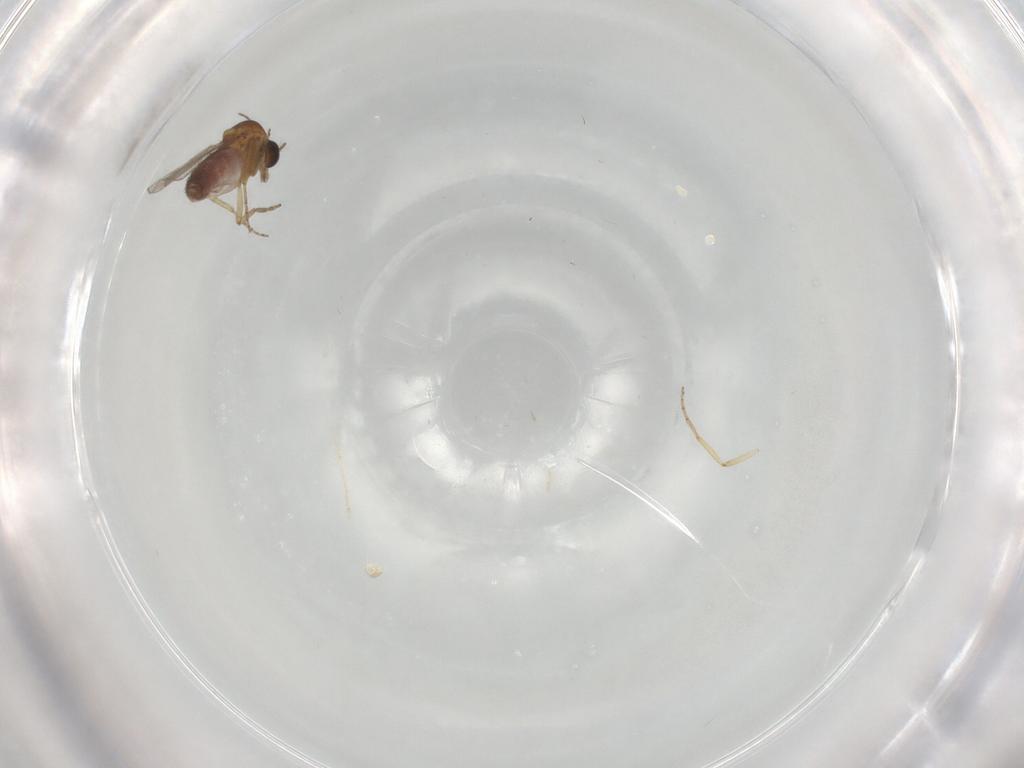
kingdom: Animalia
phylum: Arthropoda
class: Insecta
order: Diptera
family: Ceratopogonidae
